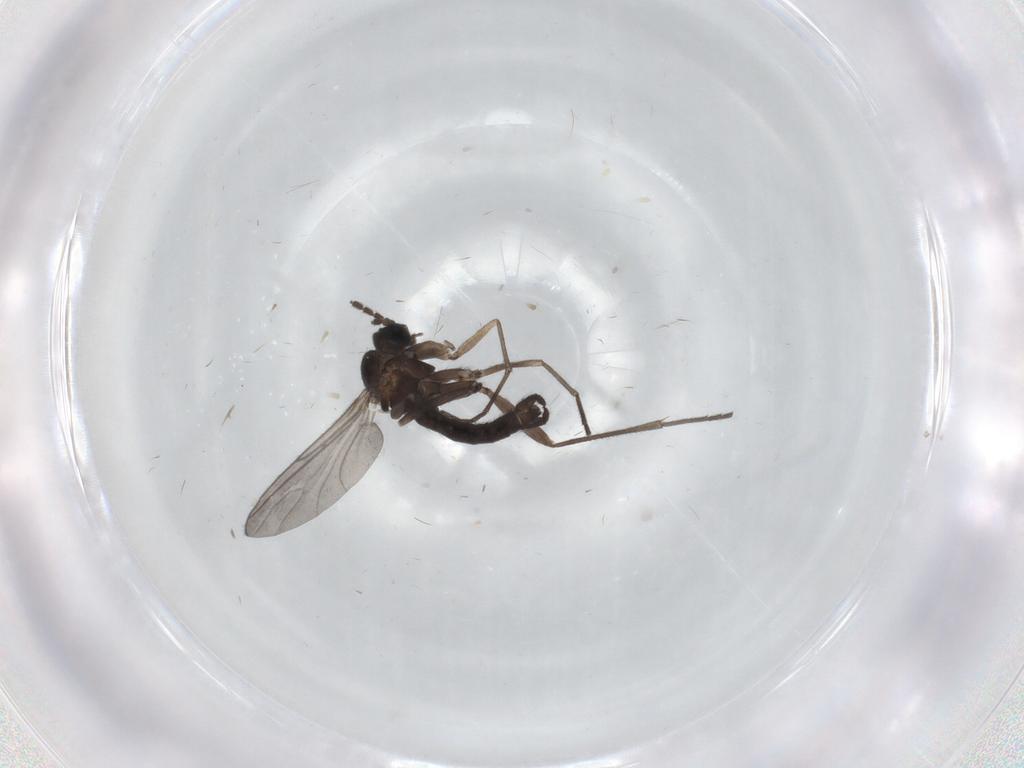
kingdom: Animalia
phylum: Arthropoda
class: Insecta
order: Diptera
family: Sciaridae
